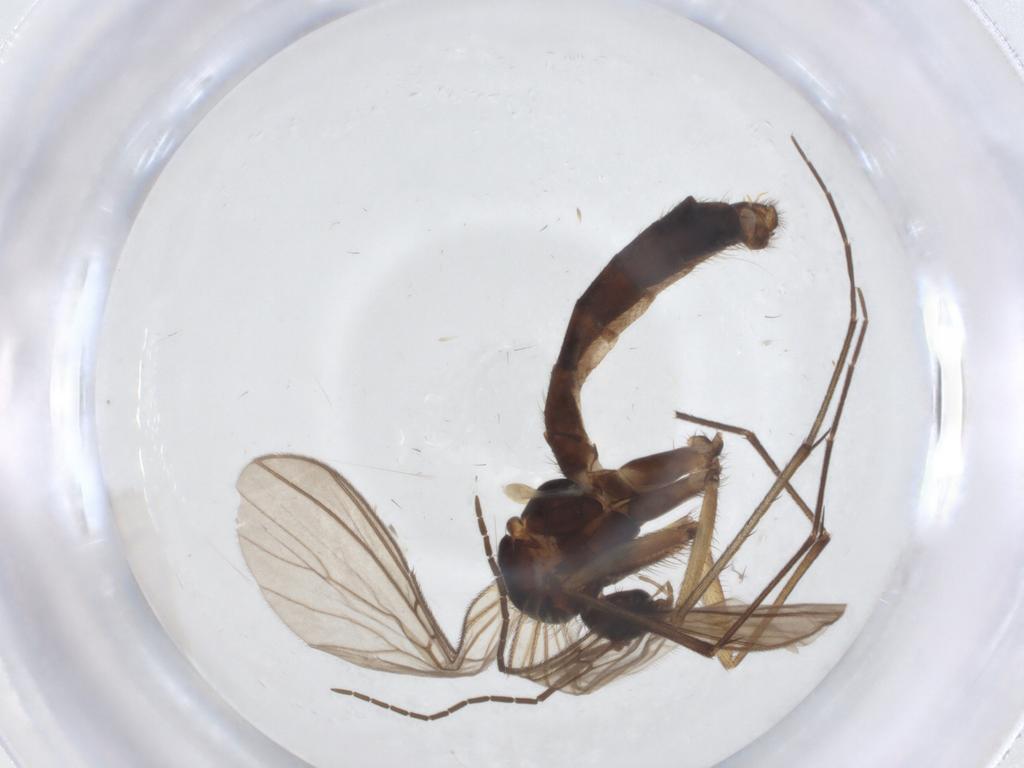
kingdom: Animalia
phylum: Arthropoda
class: Insecta
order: Diptera
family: Mycetophilidae
